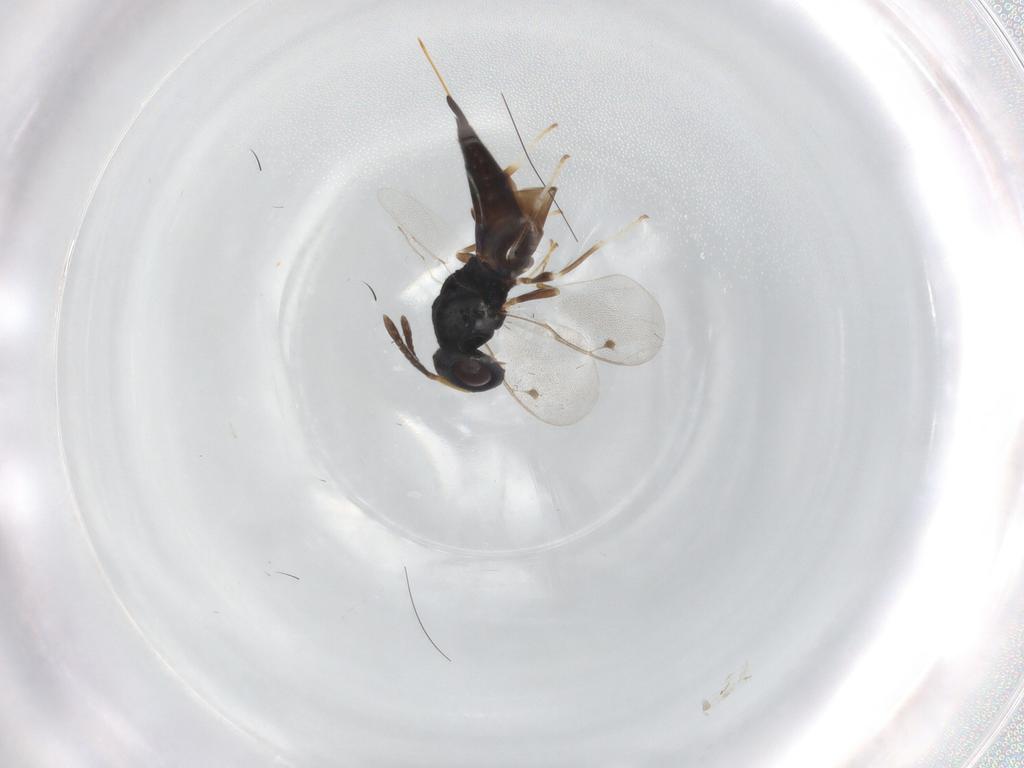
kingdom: Animalia
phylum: Arthropoda
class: Insecta
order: Hymenoptera
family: Pteromalidae
